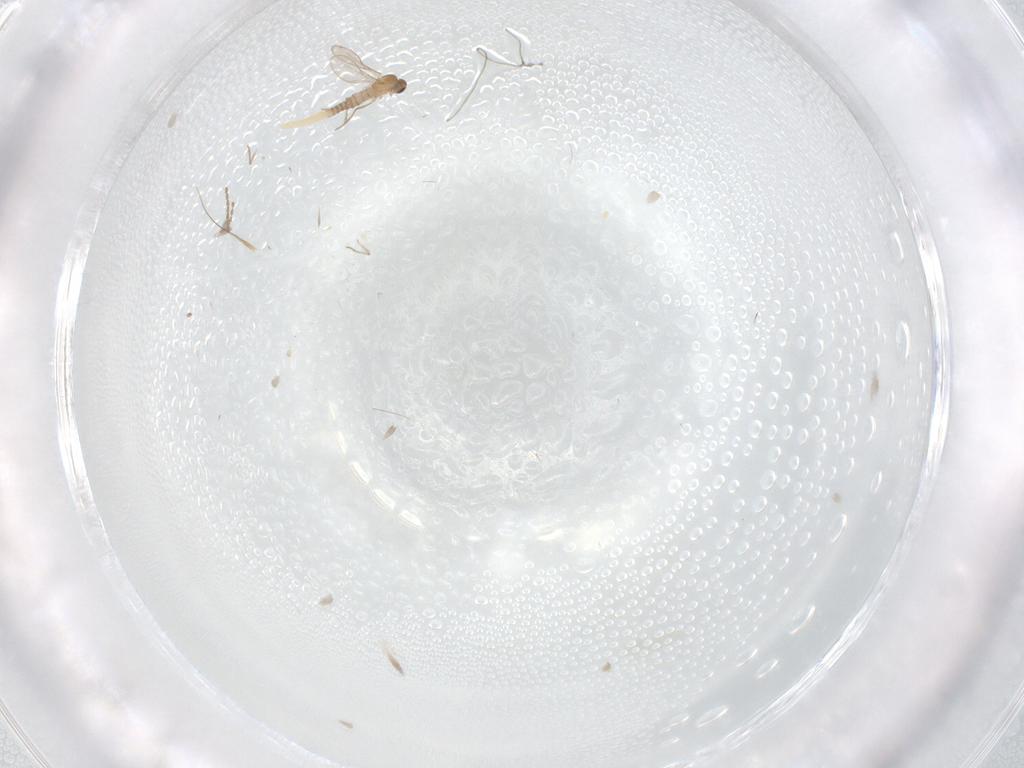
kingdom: Animalia
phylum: Arthropoda
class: Insecta
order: Diptera
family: Cecidomyiidae
